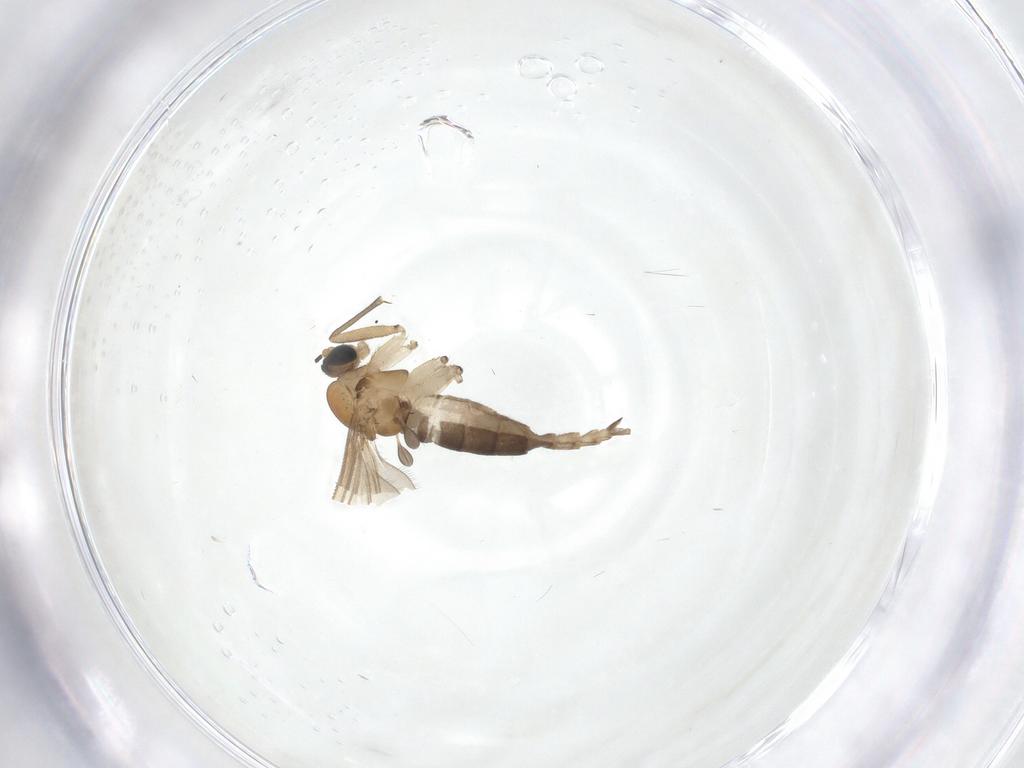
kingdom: Animalia
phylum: Arthropoda
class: Insecta
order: Diptera
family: Sciaridae
